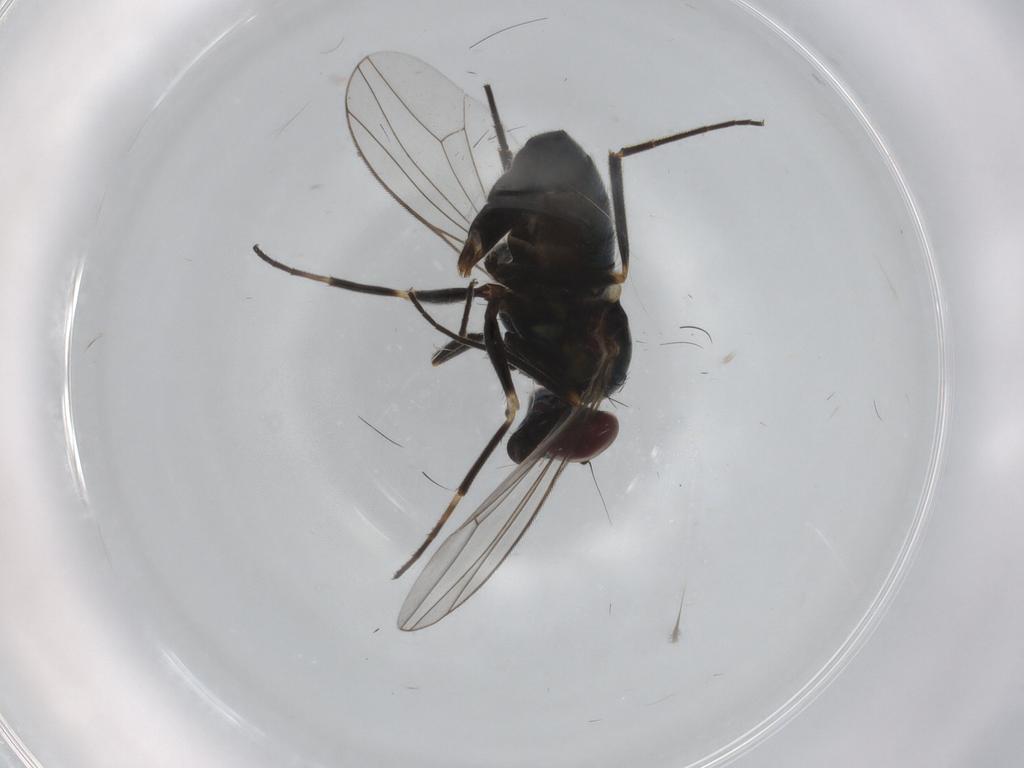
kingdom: Animalia
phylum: Arthropoda
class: Insecta
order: Diptera
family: Dolichopodidae
